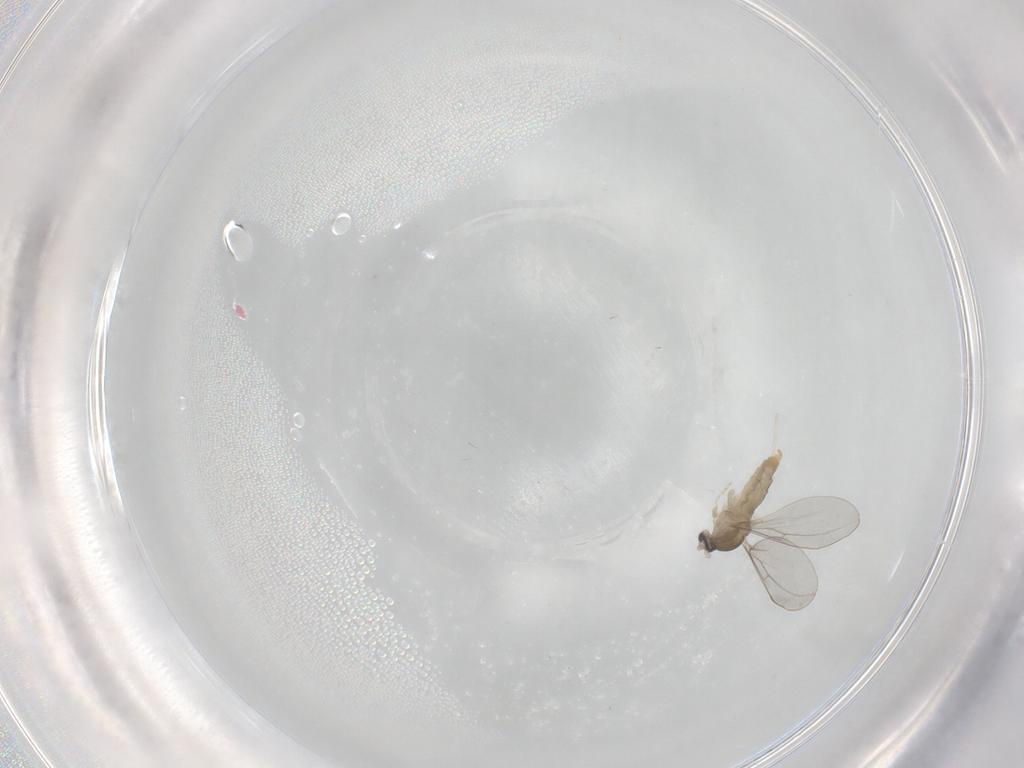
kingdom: Animalia
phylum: Arthropoda
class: Insecta
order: Diptera
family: Cecidomyiidae
